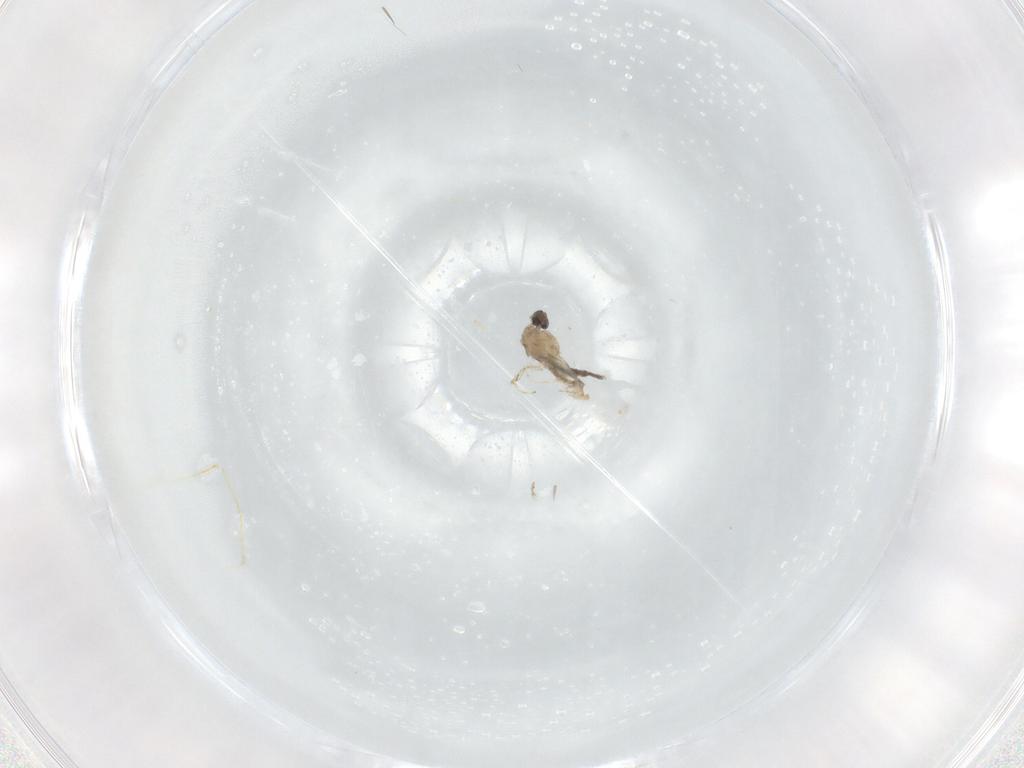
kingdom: Animalia
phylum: Arthropoda
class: Insecta
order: Diptera
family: Cecidomyiidae
